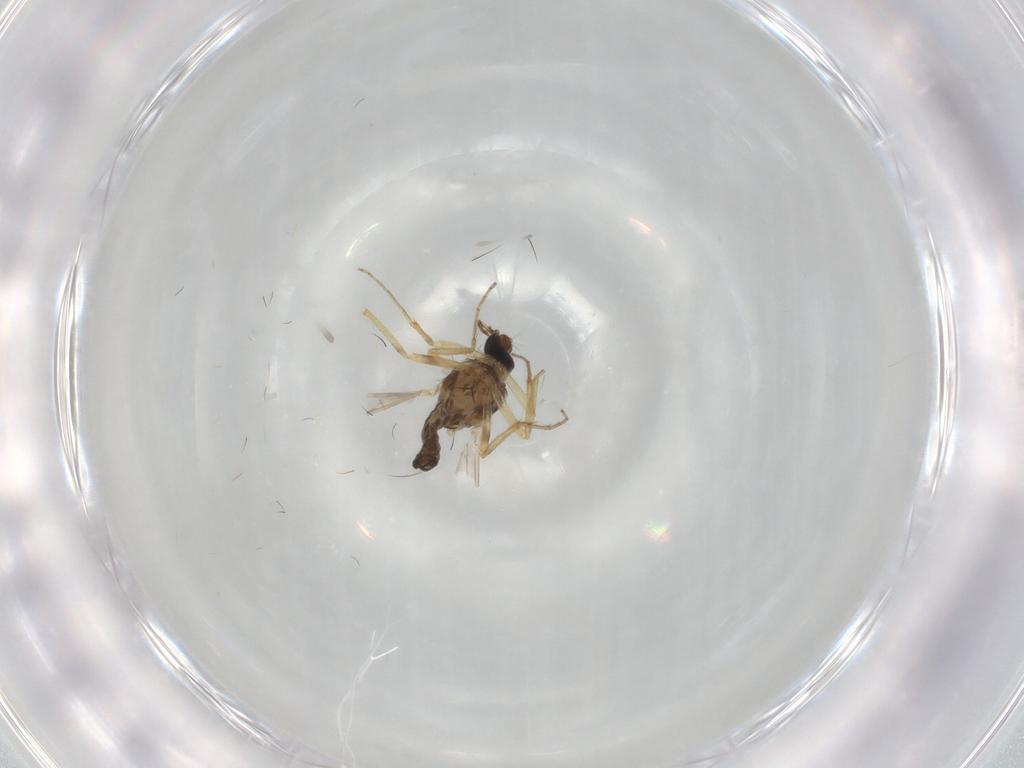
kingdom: Animalia
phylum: Arthropoda
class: Insecta
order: Diptera
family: Ceratopogonidae
